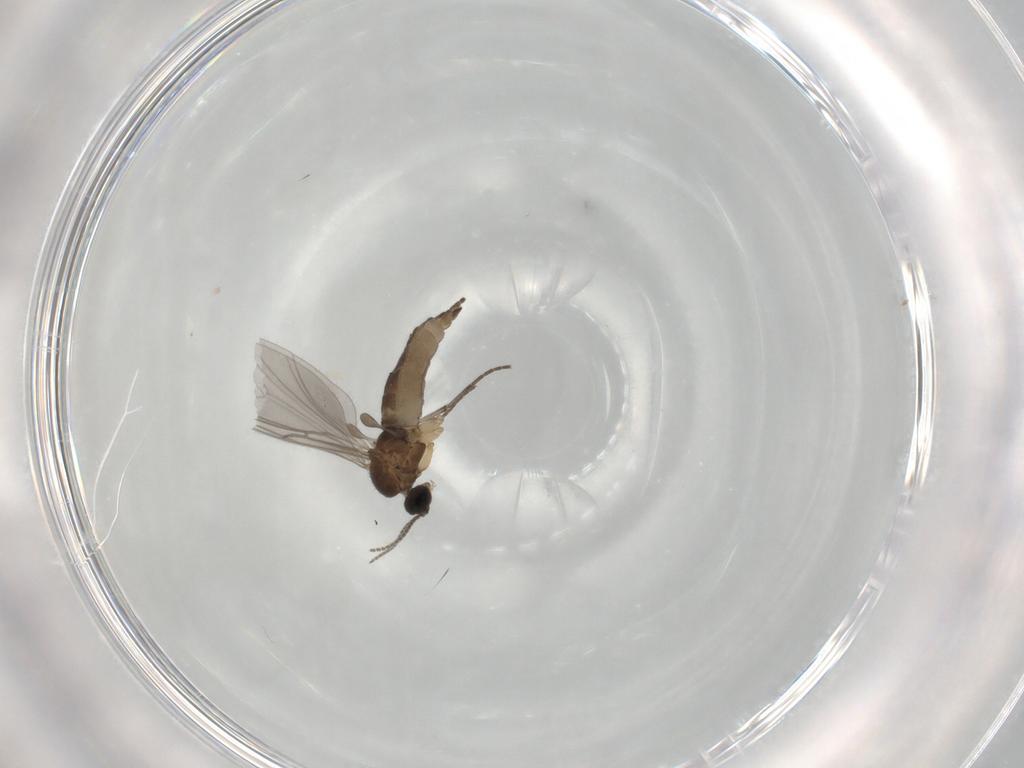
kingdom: Animalia
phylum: Arthropoda
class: Insecta
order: Diptera
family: Sciaridae
